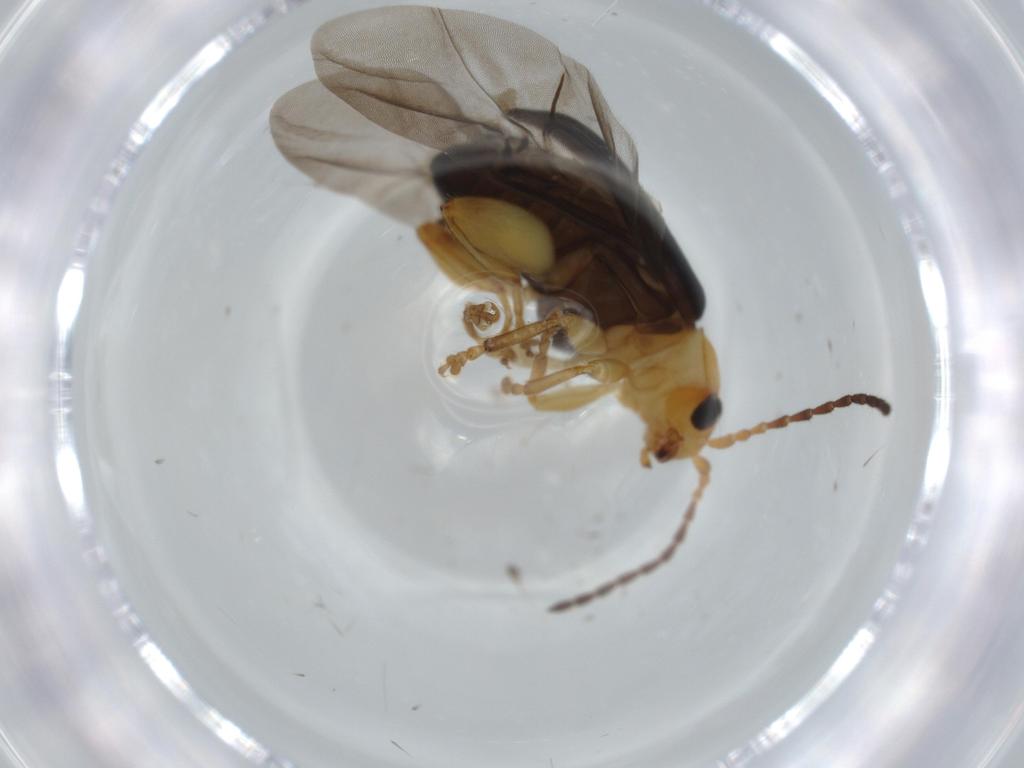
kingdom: Animalia
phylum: Arthropoda
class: Insecta
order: Coleoptera
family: Chrysomelidae
